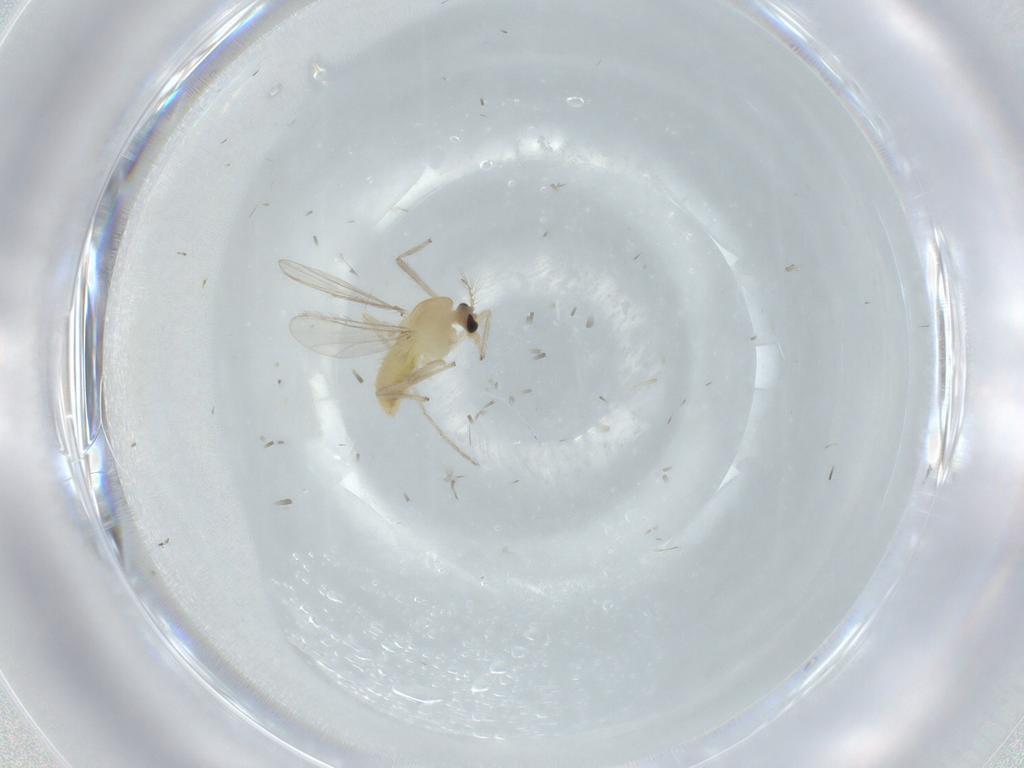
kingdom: Animalia
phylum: Arthropoda
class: Insecta
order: Diptera
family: Chironomidae
